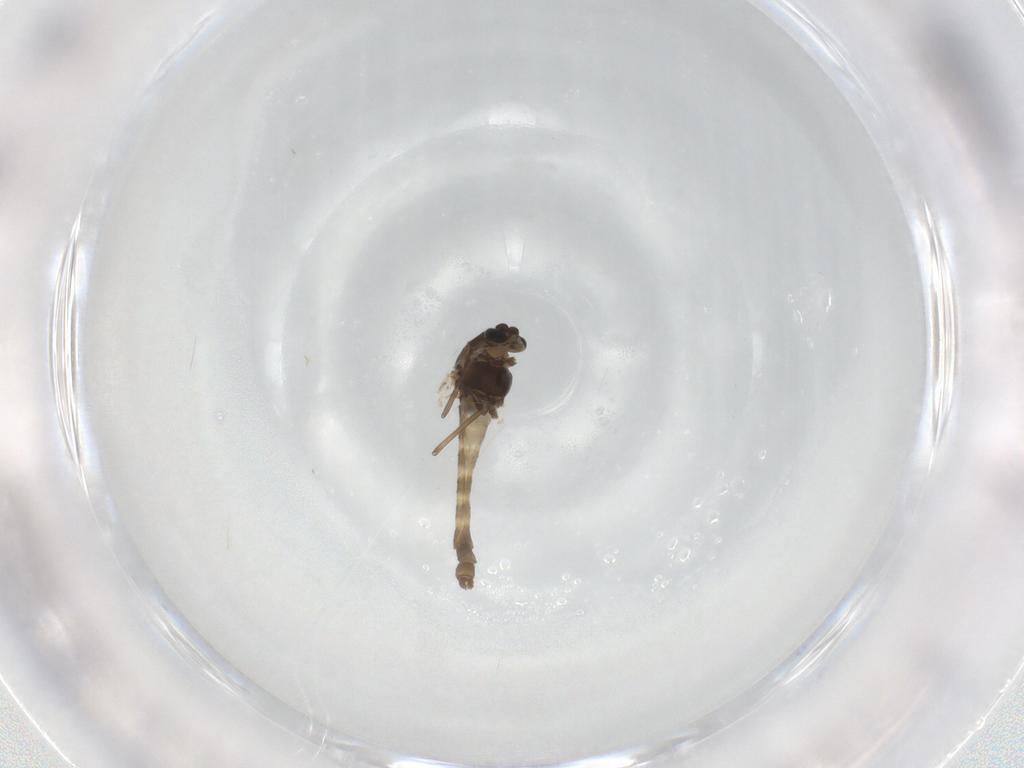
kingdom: Animalia
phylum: Arthropoda
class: Insecta
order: Diptera
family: Chironomidae
